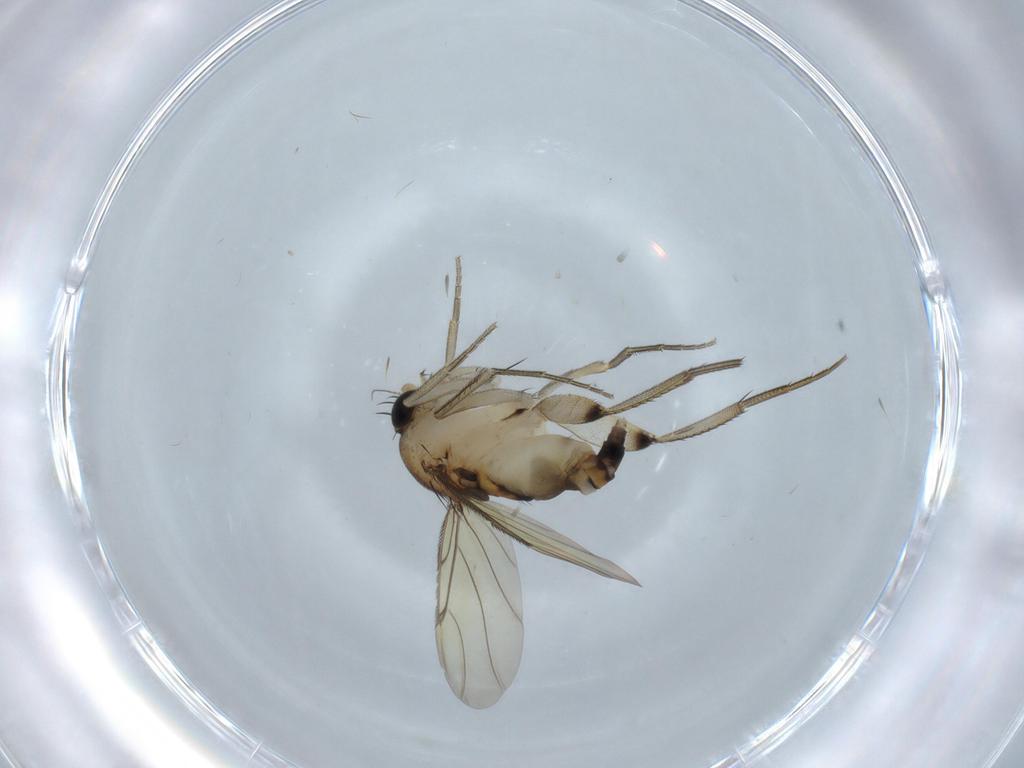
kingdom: Animalia
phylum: Arthropoda
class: Insecta
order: Diptera
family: Phoridae
